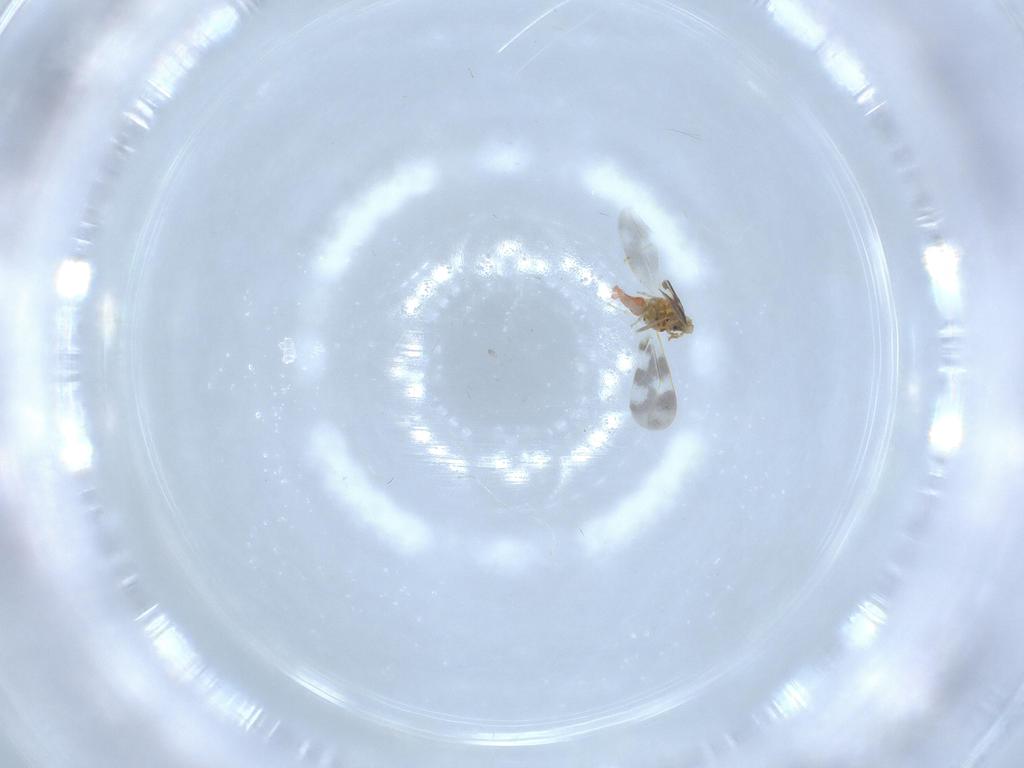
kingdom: Animalia
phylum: Arthropoda
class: Insecta
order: Hemiptera
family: Aleyrodidae
